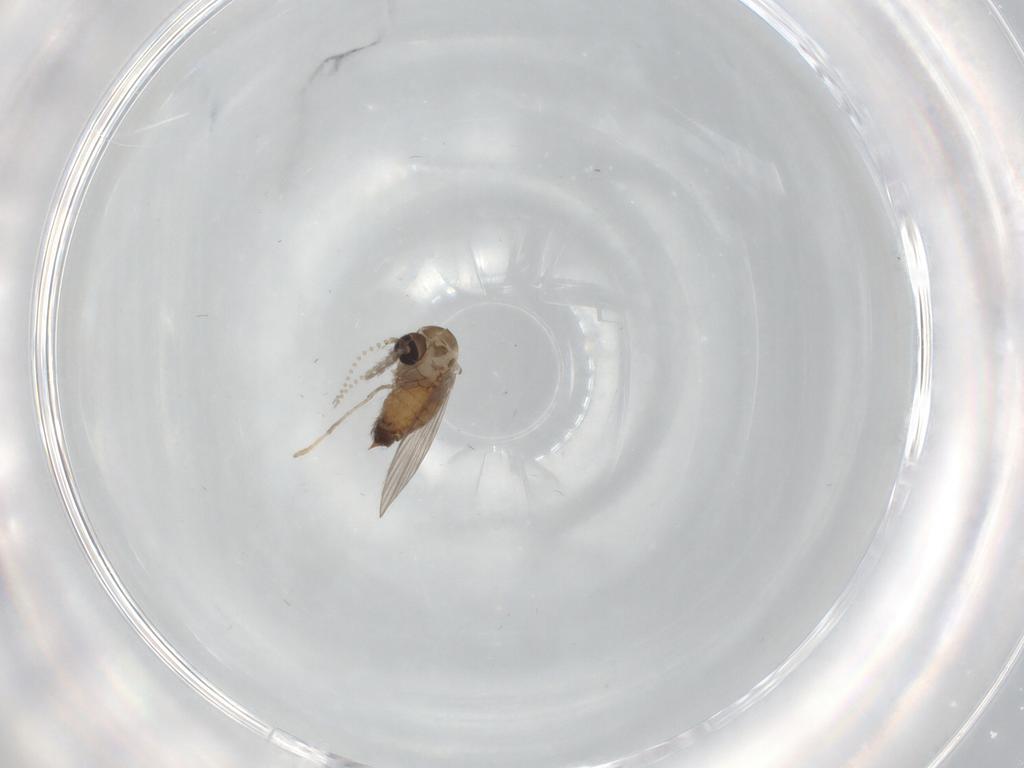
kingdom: Animalia
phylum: Arthropoda
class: Insecta
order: Diptera
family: Psychodidae
